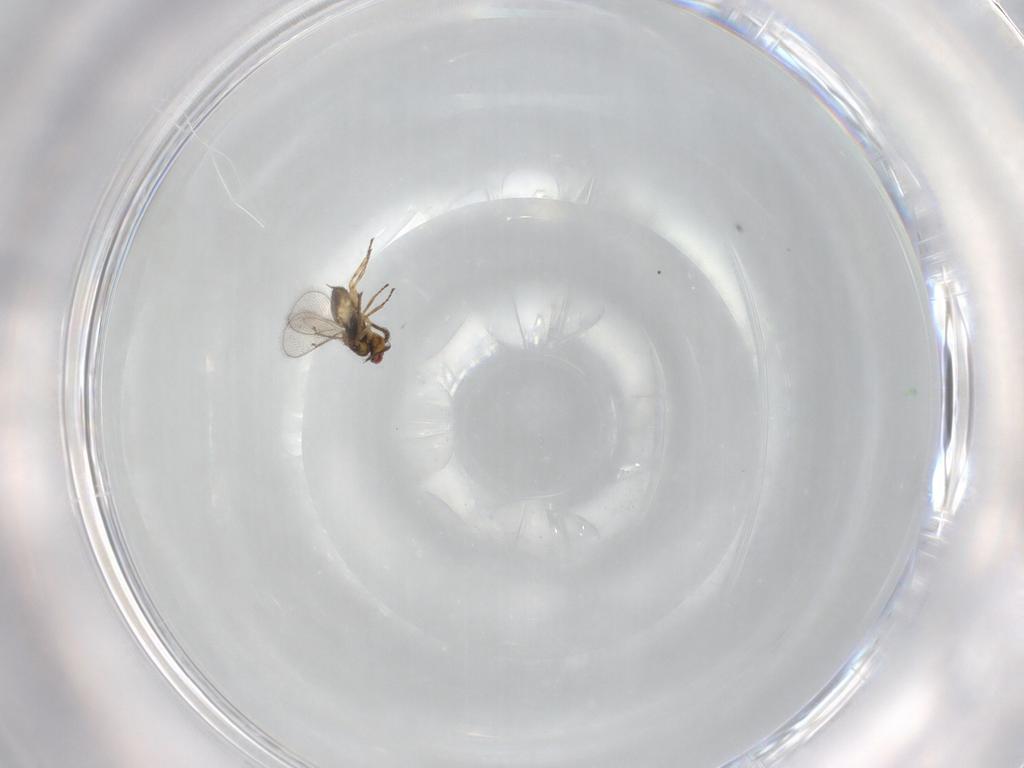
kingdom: Animalia
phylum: Arthropoda
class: Insecta
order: Hymenoptera
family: Eulophidae
